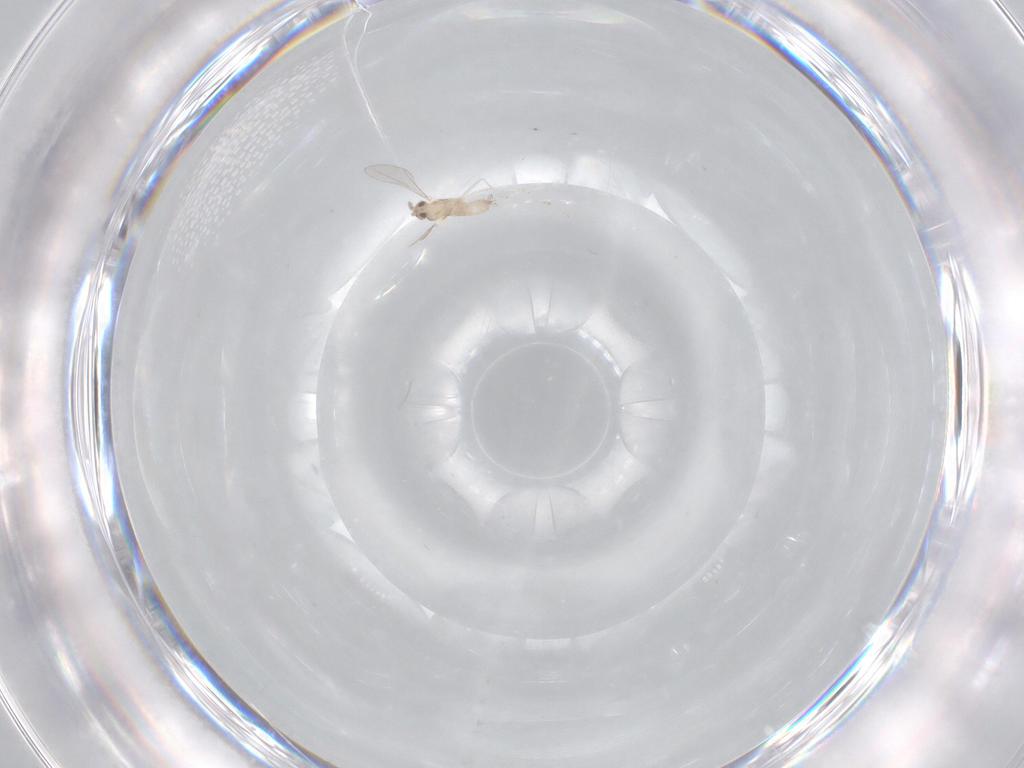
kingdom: Animalia
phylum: Arthropoda
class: Insecta
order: Diptera
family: Cecidomyiidae
